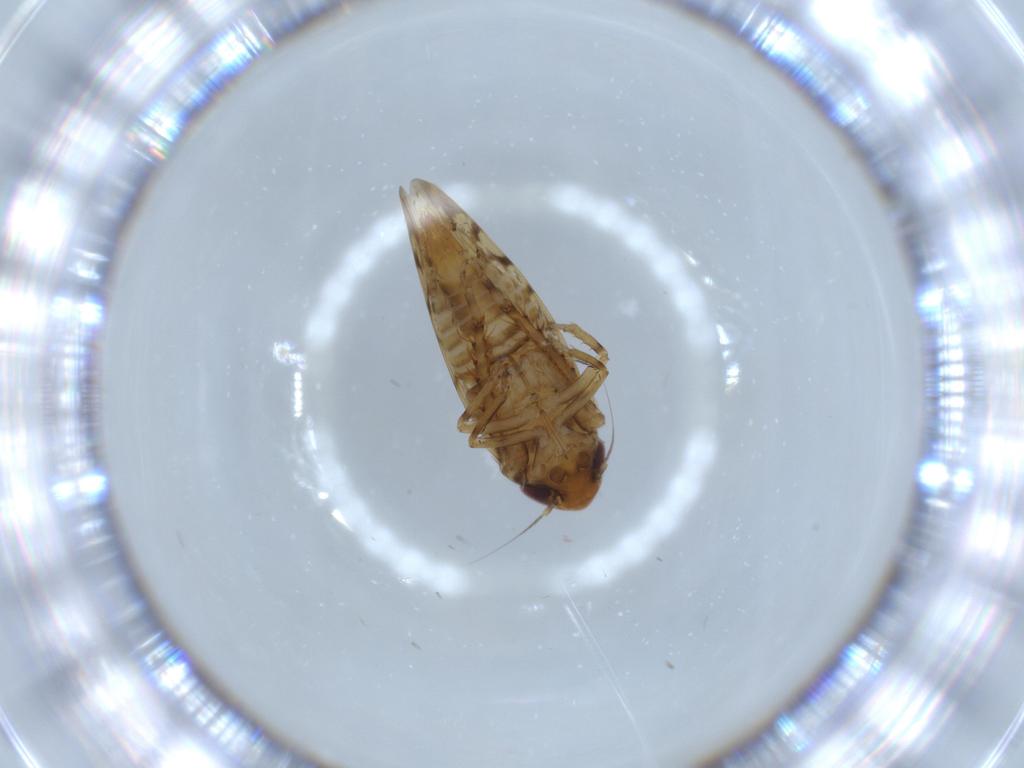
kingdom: Animalia
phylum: Arthropoda
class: Insecta
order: Hemiptera
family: Cicadellidae
